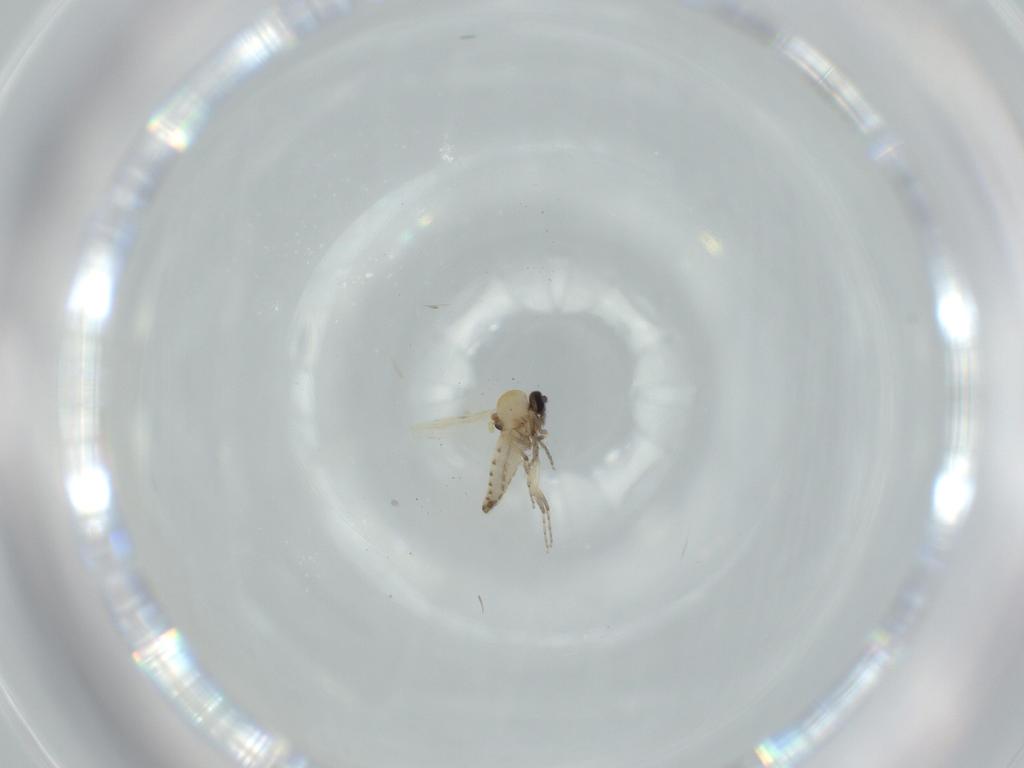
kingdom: Animalia
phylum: Arthropoda
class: Insecta
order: Diptera
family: Ceratopogonidae
